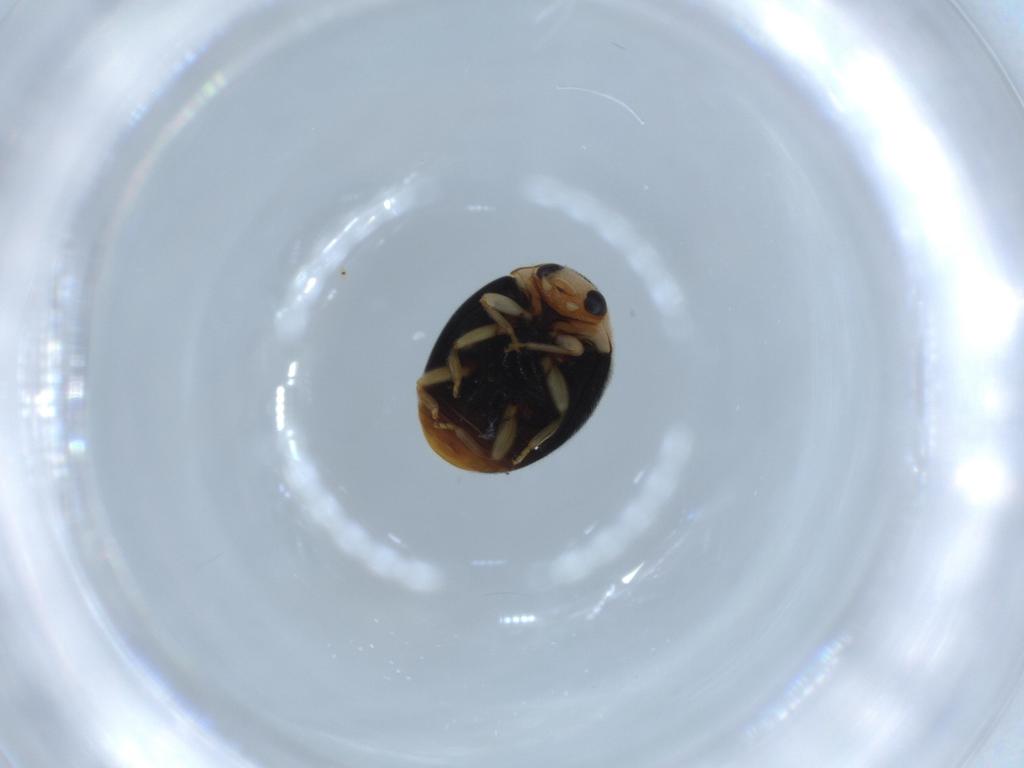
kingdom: Animalia
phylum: Arthropoda
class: Insecta
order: Coleoptera
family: Coccinellidae
